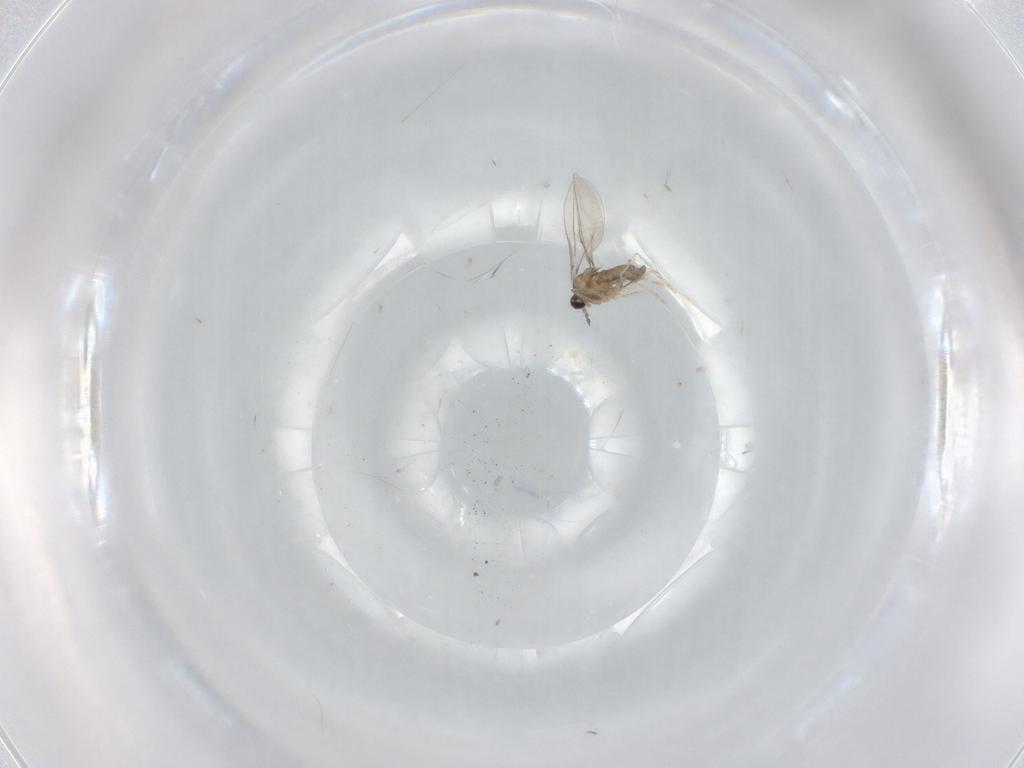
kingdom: Animalia
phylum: Arthropoda
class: Insecta
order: Diptera
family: Cecidomyiidae
